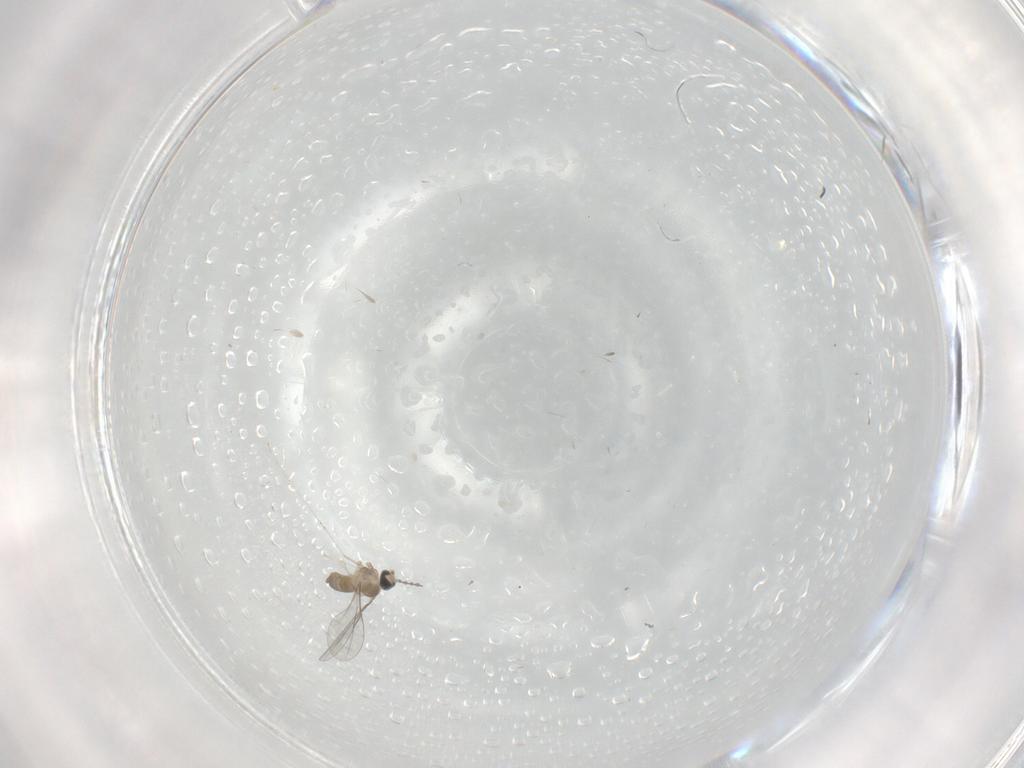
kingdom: Animalia
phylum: Arthropoda
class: Insecta
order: Diptera
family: Cecidomyiidae
